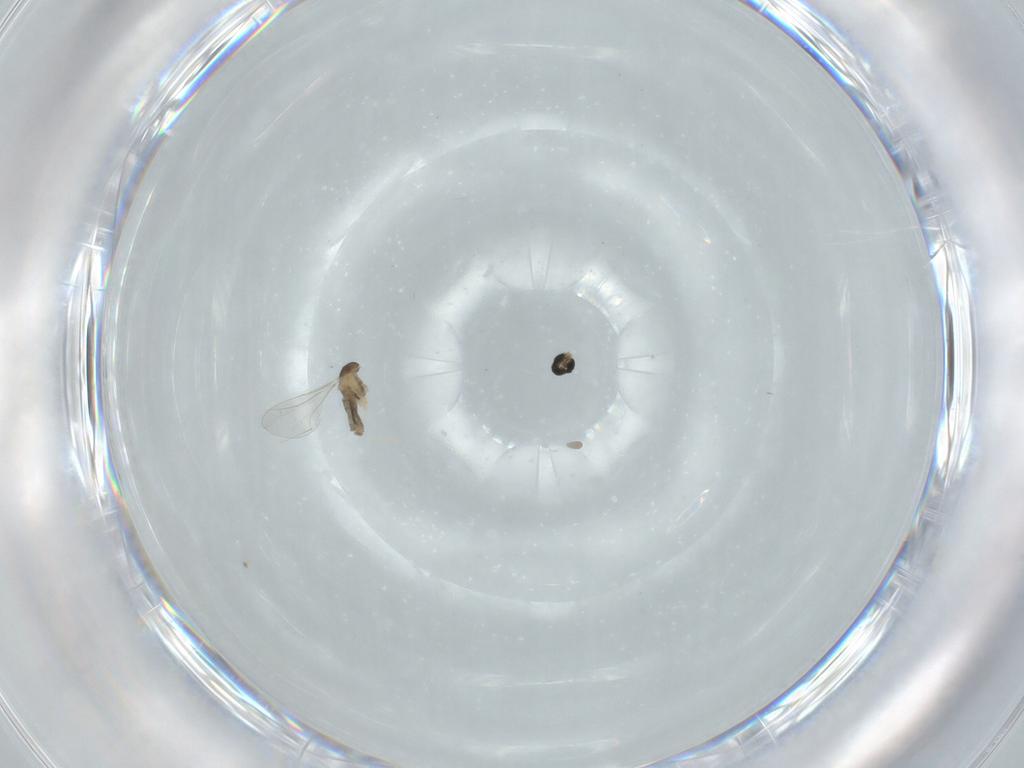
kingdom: Animalia
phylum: Arthropoda
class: Insecta
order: Diptera
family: Cecidomyiidae
